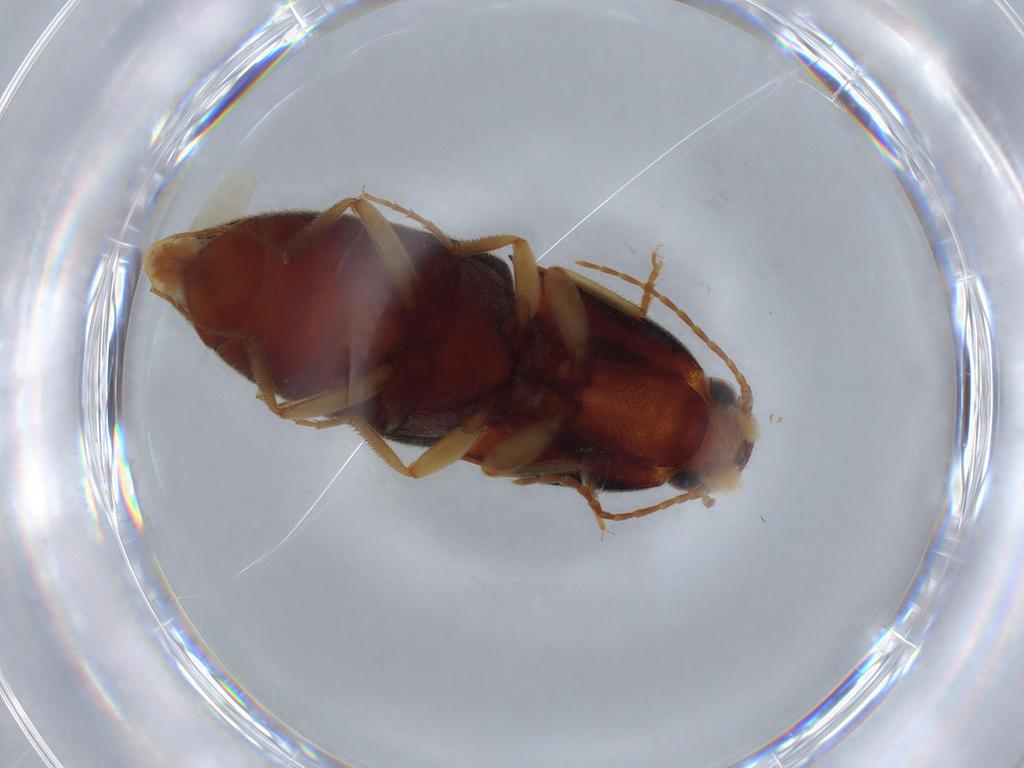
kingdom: Animalia
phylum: Arthropoda
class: Insecta
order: Coleoptera
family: Elateridae
